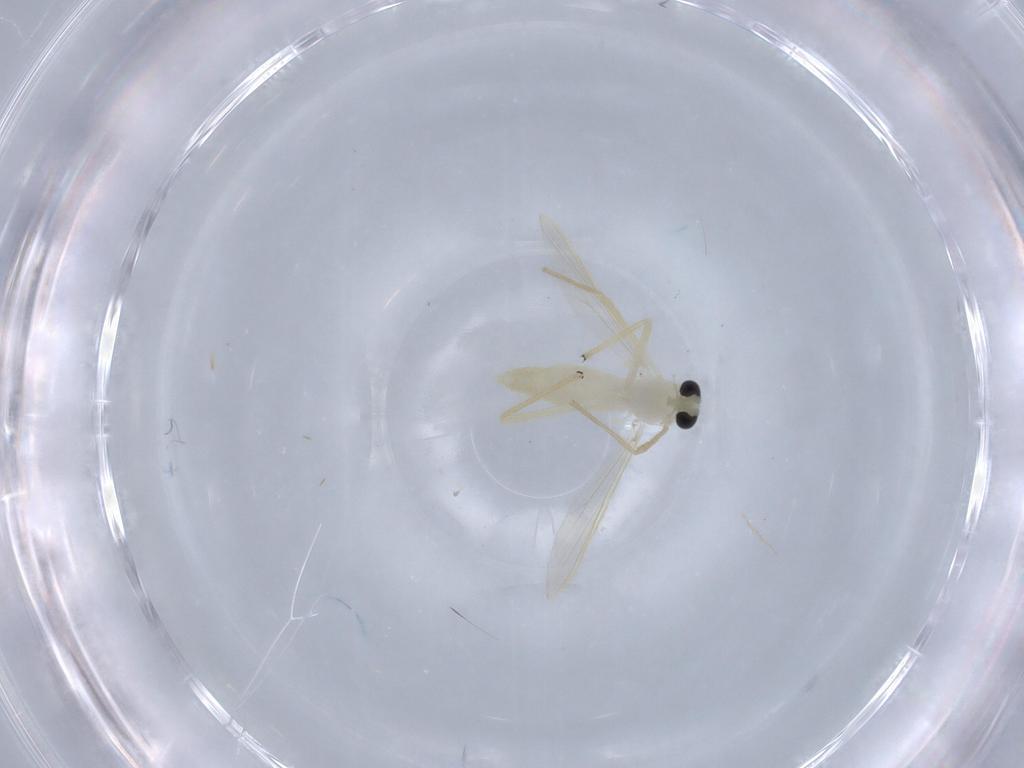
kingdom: Animalia
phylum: Arthropoda
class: Insecta
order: Diptera
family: Chironomidae
